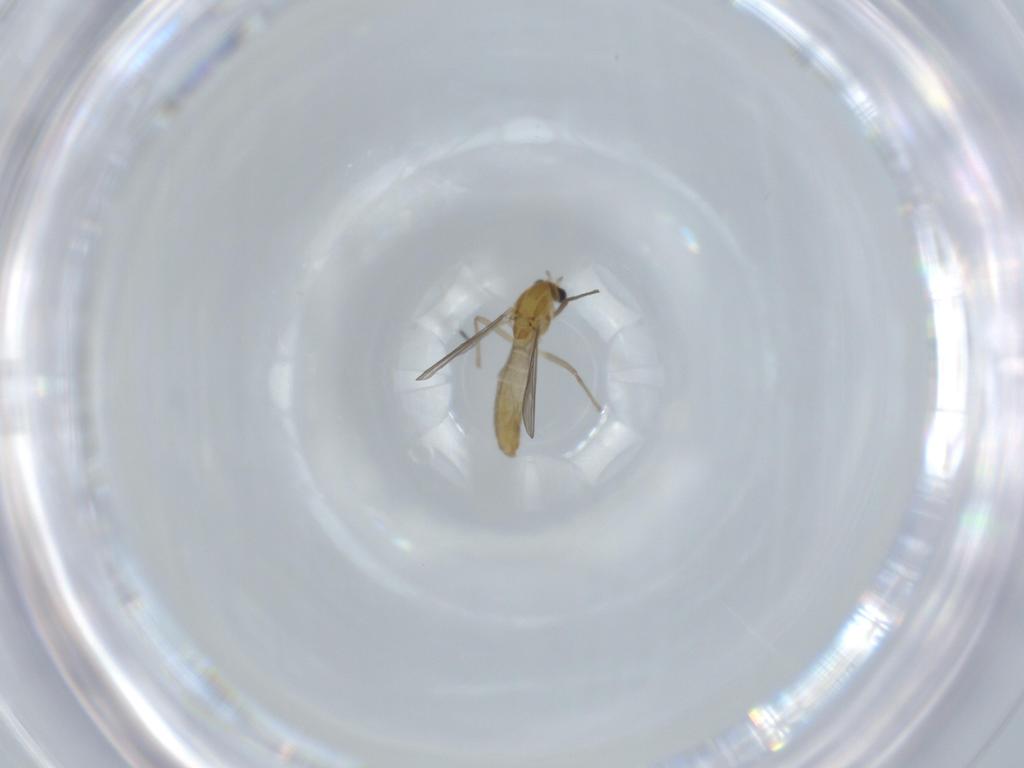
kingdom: Animalia
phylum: Arthropoda
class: Insecta
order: Diptera
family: Chironomidae
